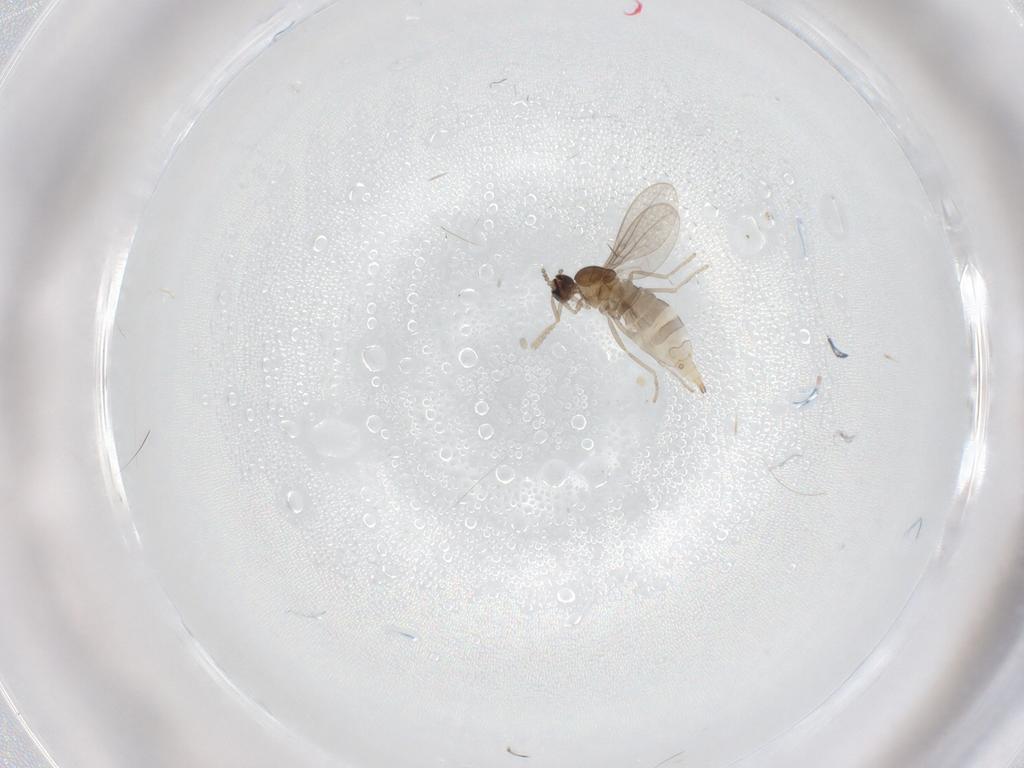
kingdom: Animalia
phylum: Arthropoda
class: Insecta
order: Diptera
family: Cecidomyiidae
